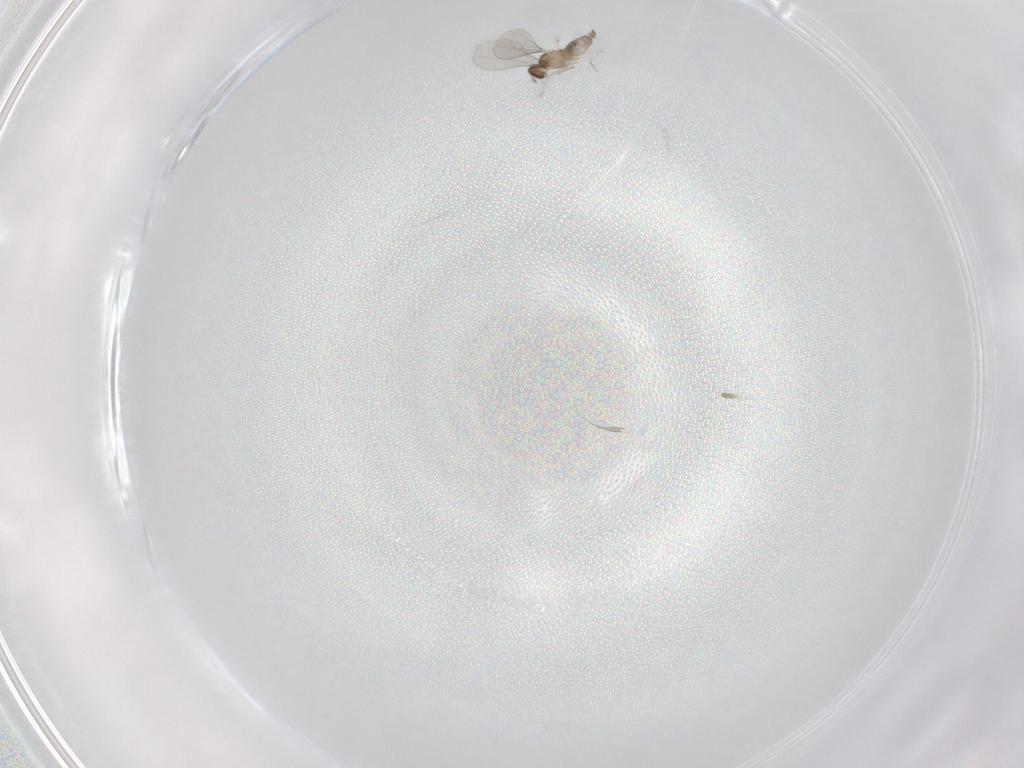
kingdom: Animalia
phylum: Arthropoda
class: Insecta
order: Diptera
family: Cecidomyiidae
